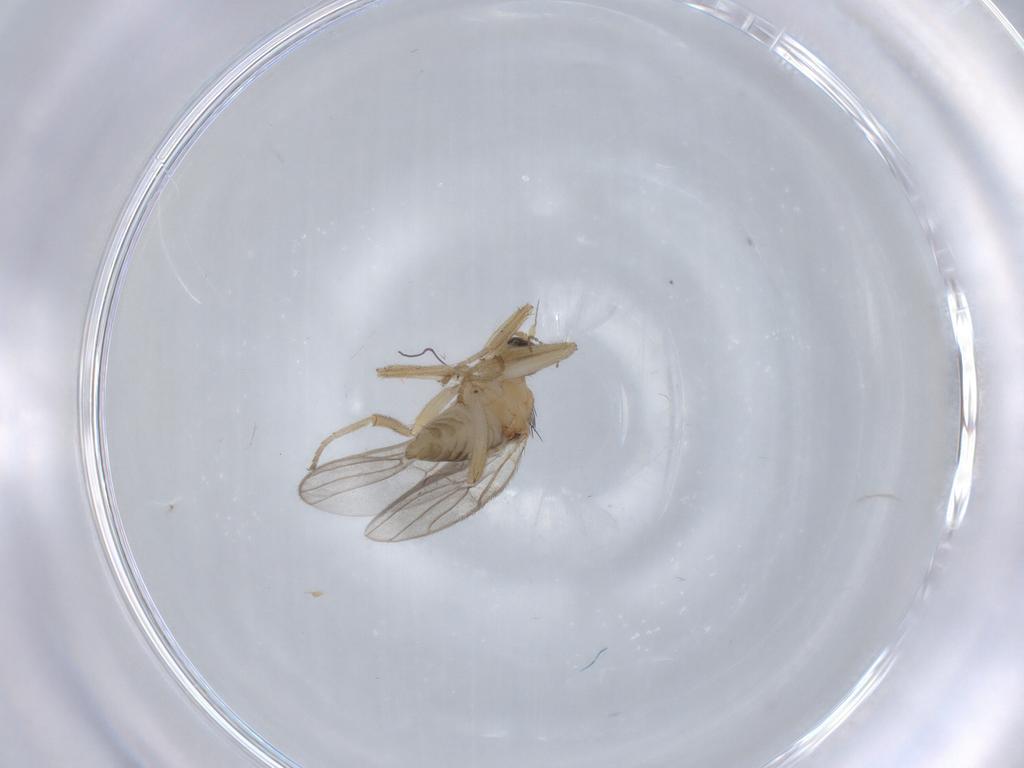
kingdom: Animalia
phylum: Arthropoda
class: Insecta
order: Diptera
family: Hybotidae
